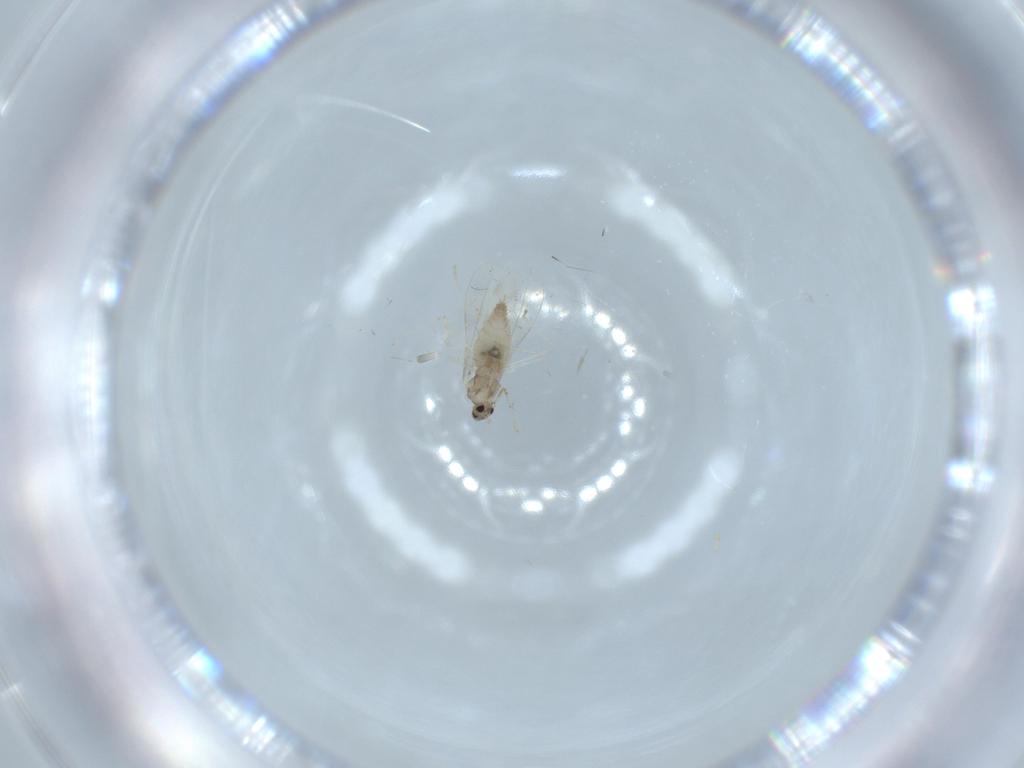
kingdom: Animalia
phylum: Arthropoda
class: Insecta
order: Diptera
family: Cecidomyiidae
